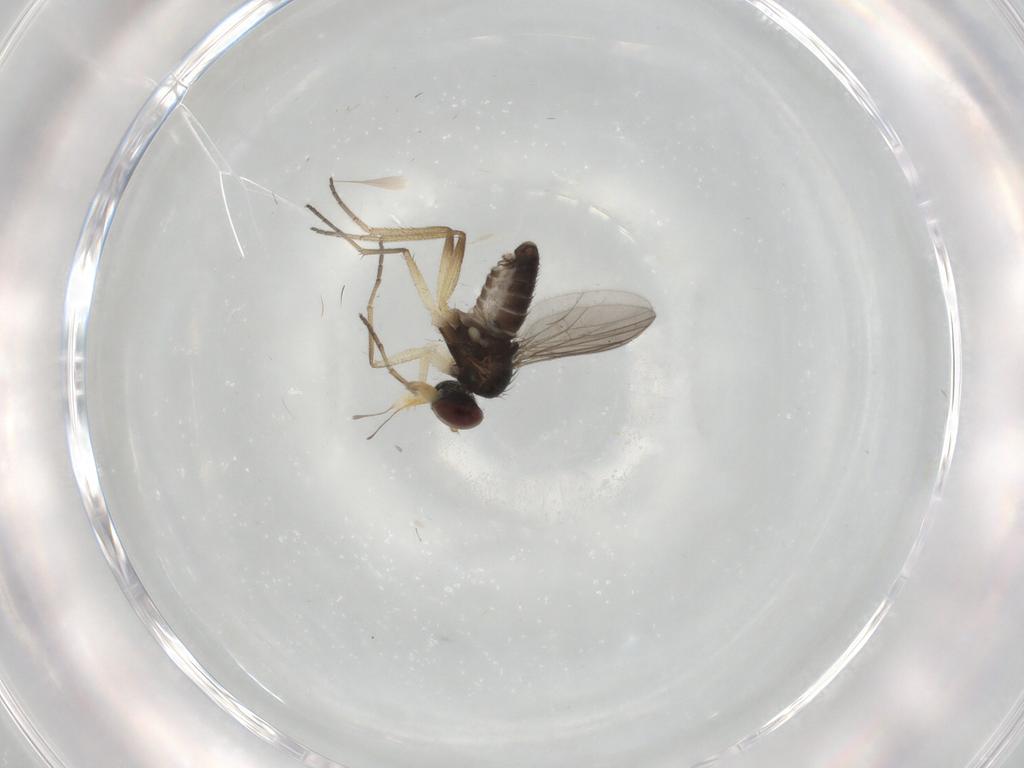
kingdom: Animalia
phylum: Arthropoda
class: Insecta
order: Diptera
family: Dolichopodidae
